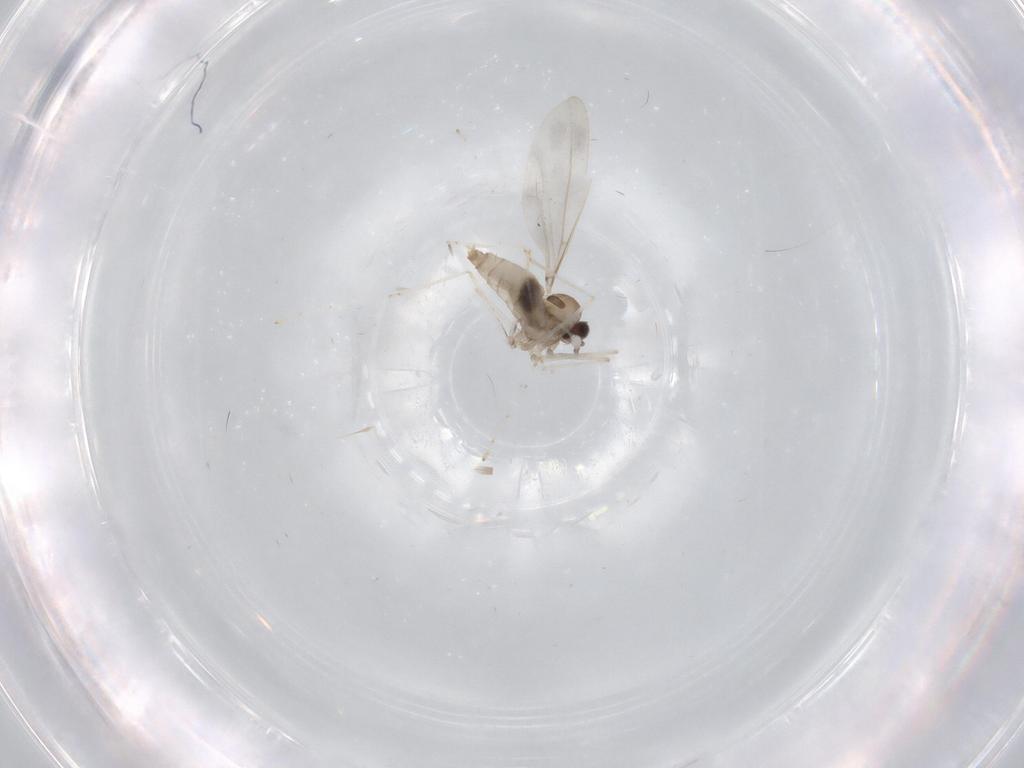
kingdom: Animalia
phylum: Arthropoda
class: Insecta
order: Diptera
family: Cecidomyiidae
